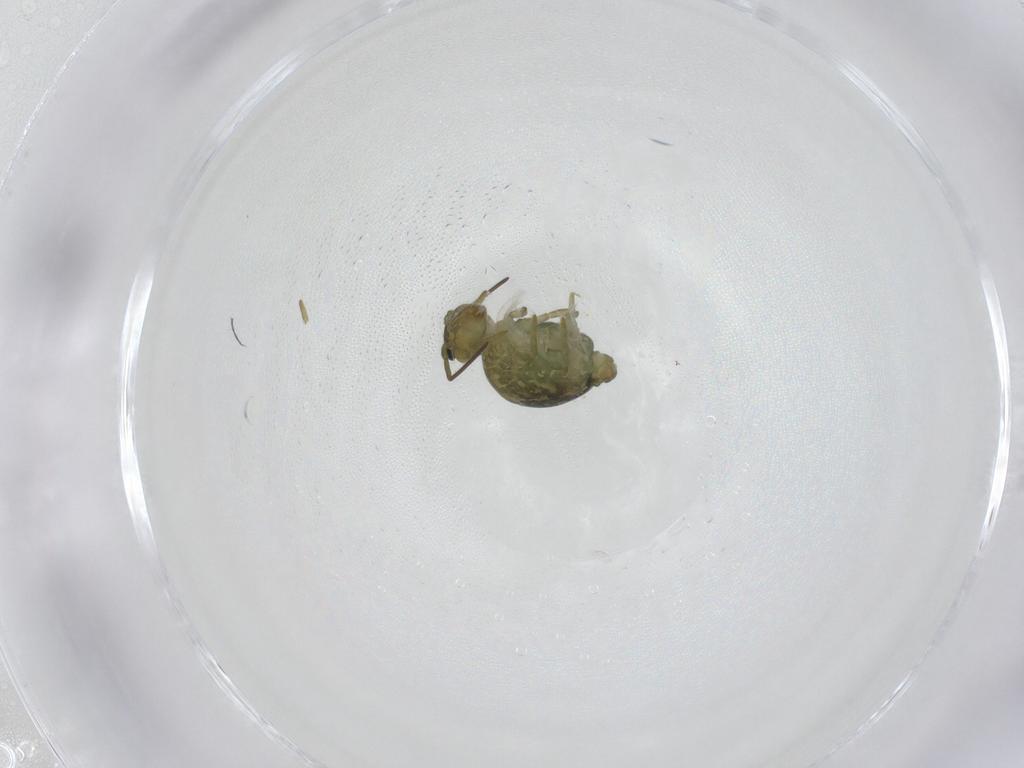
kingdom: Animalia
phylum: Arthropoda
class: Collembola
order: Symphypleona
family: Sminthuridae
